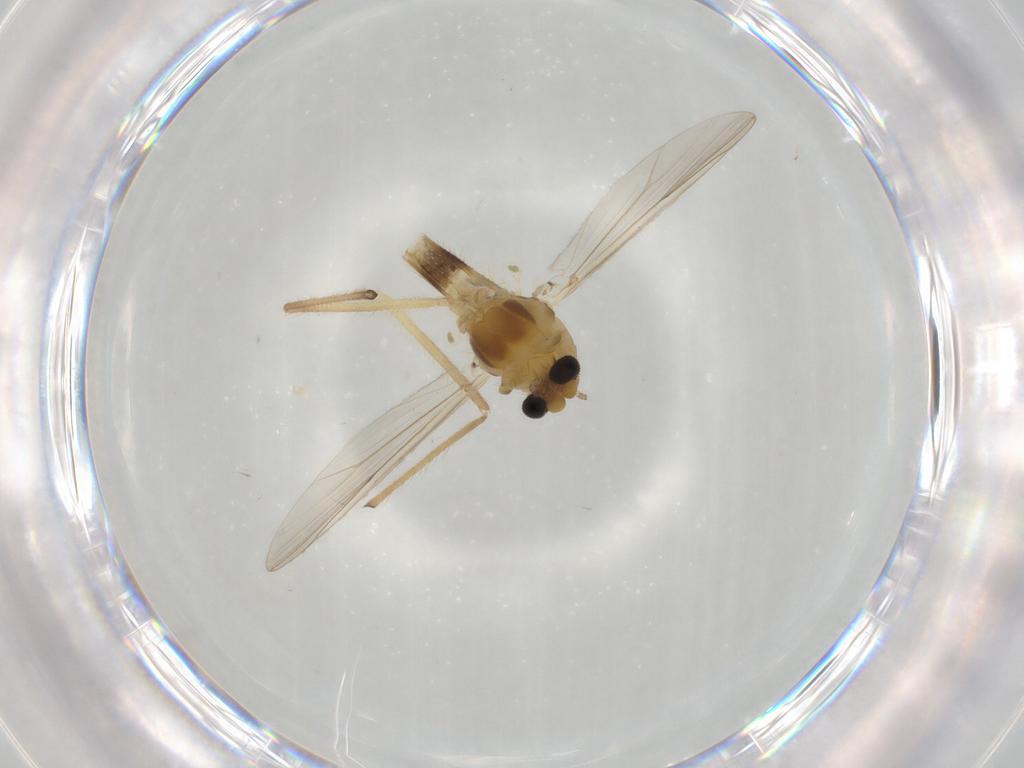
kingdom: Animalia
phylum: Arthropoda
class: Insecta
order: Diptera
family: Chironomidae
